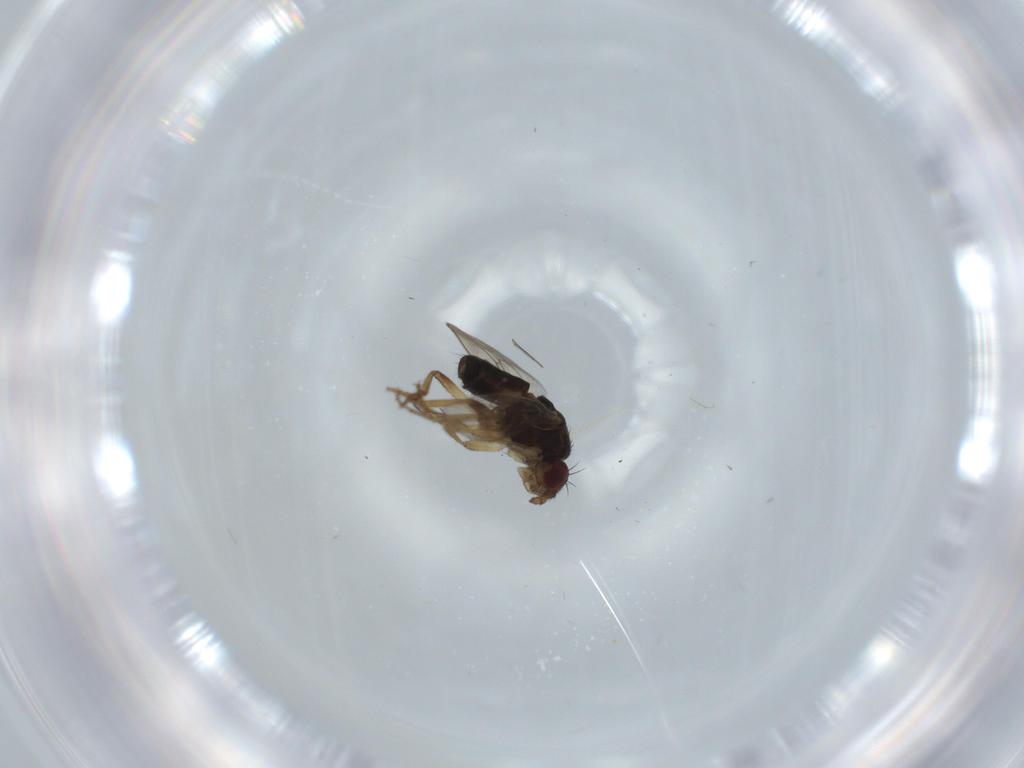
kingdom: Animalia
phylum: Arthropoda
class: Insecta
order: Diptera
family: Sphaeroceridae
